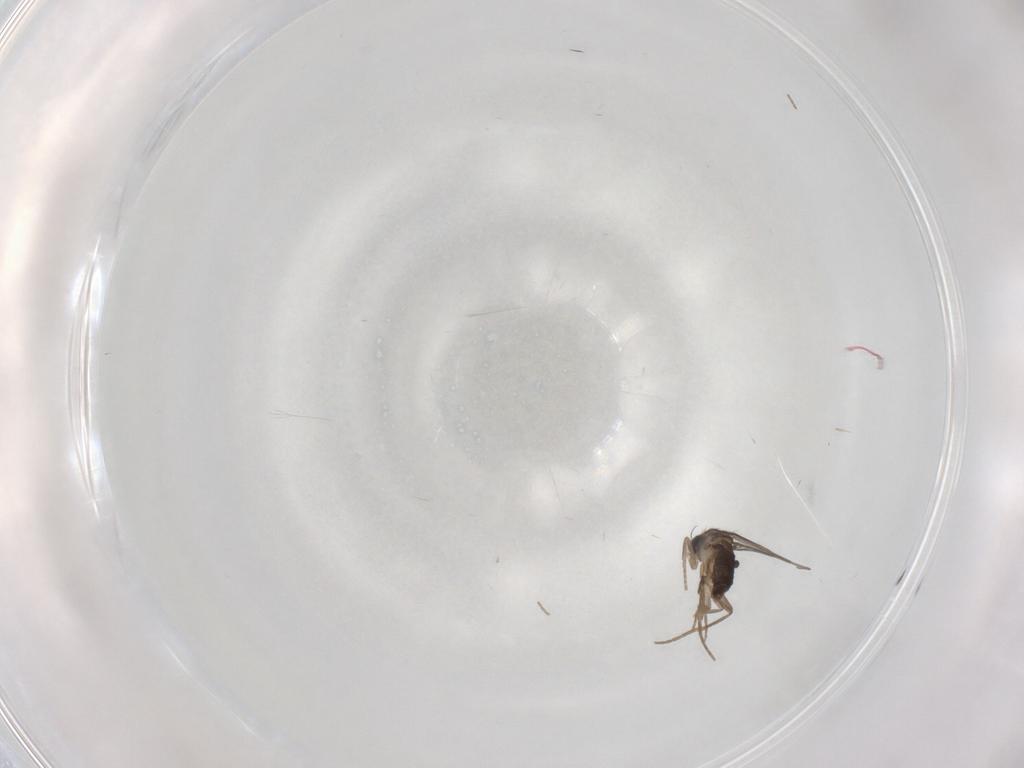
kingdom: Animalia
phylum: Arthropoda
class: Insecta
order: Diptera
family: Phoridae
